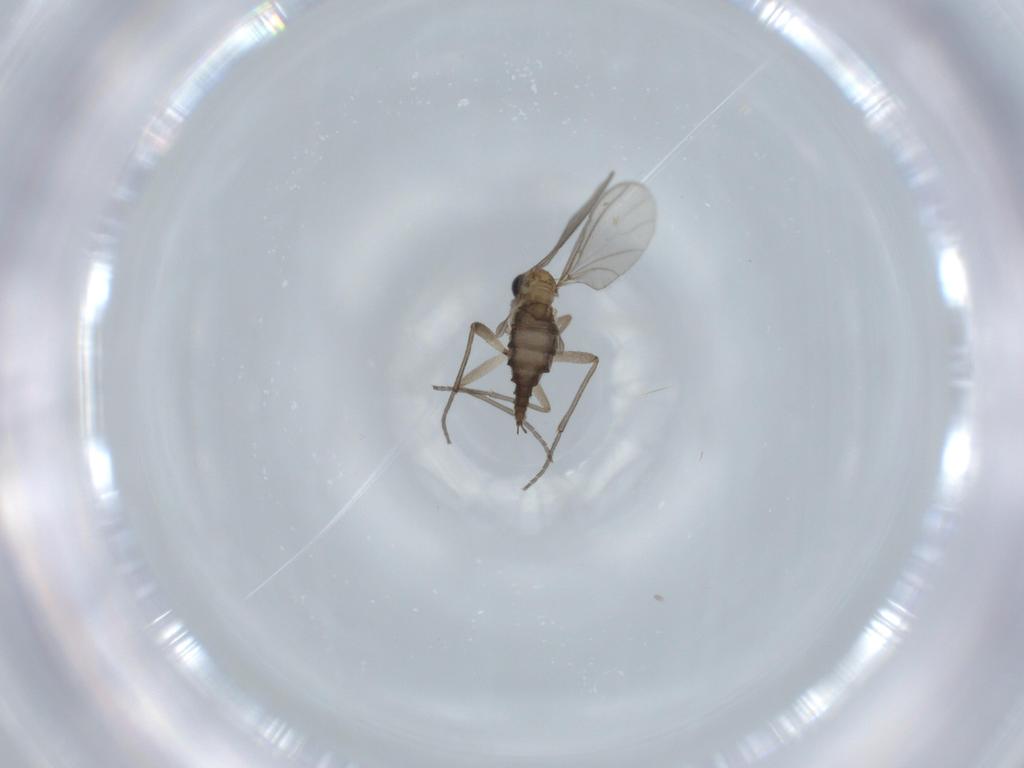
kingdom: Animalia
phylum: Arthropoda
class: Insecta
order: Diptera
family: Sciaridae
